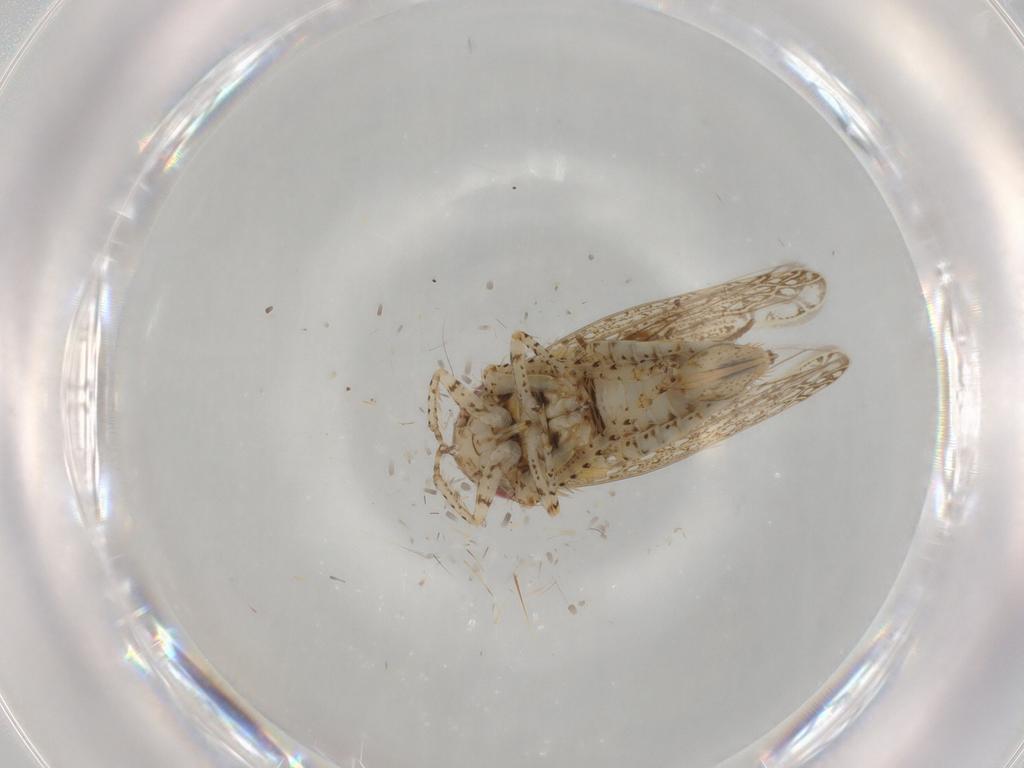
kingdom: Animalia
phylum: Arthropoda
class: Insecta
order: Hemiptera
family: Cicadellidae
